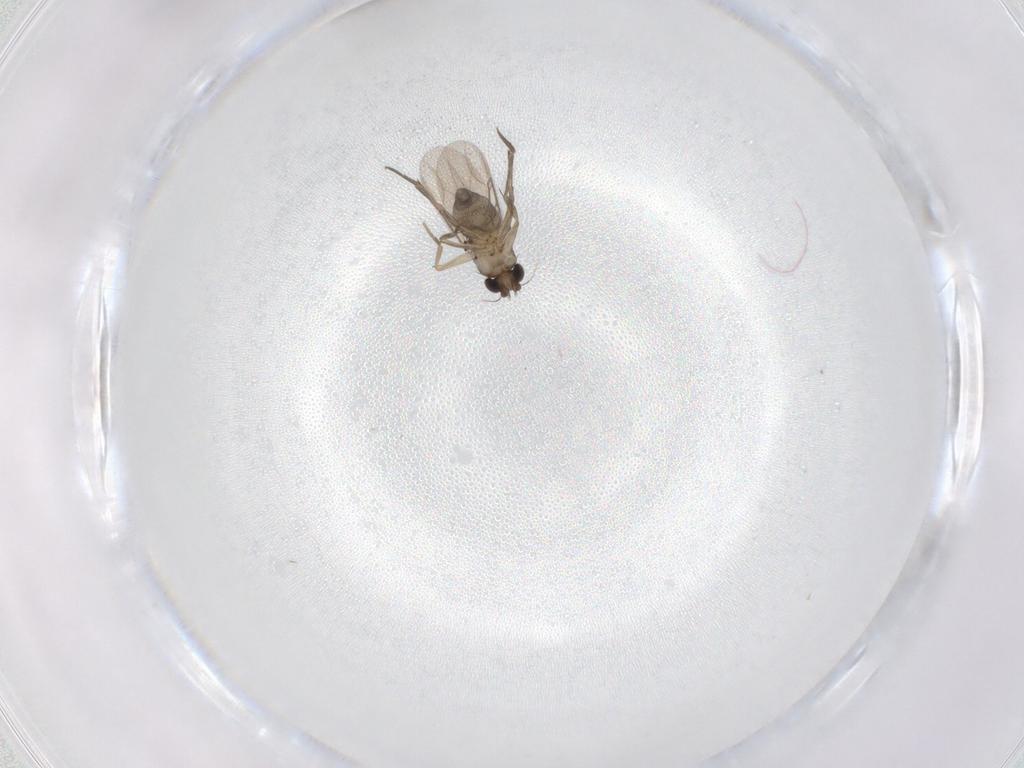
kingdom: Animalia
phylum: Arthropoda
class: Insecta
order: Diptera
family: Phoridae
